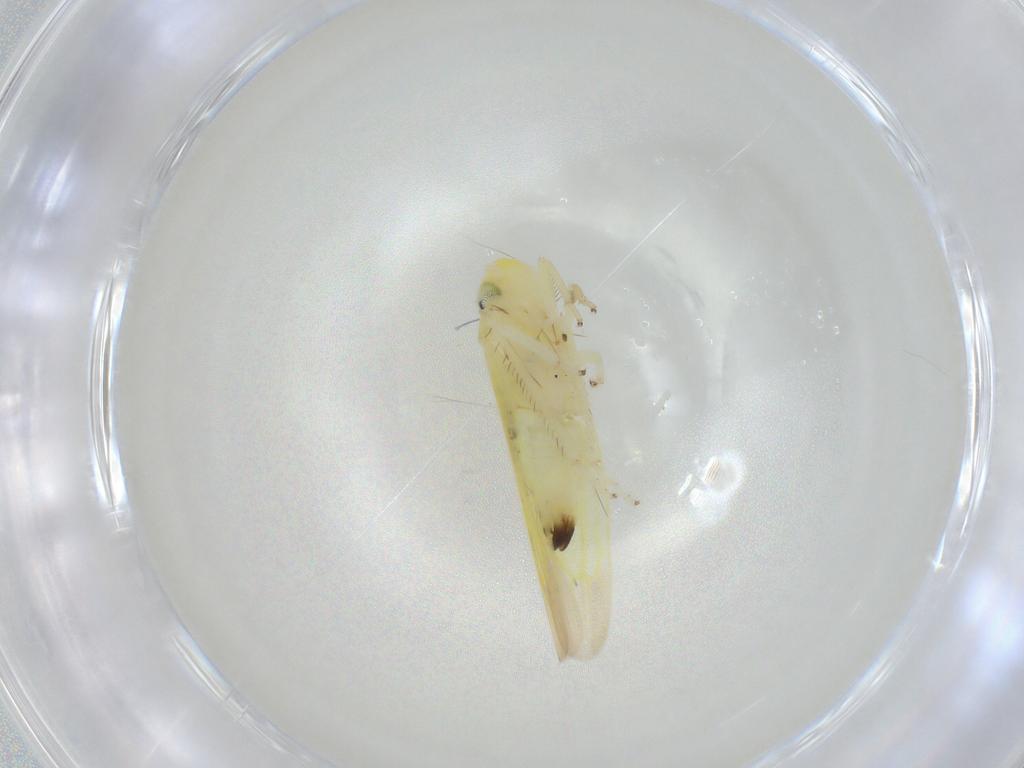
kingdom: Animalia
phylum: Arthropoda
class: Insecta
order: Hemiptera
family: Cicadellidae
